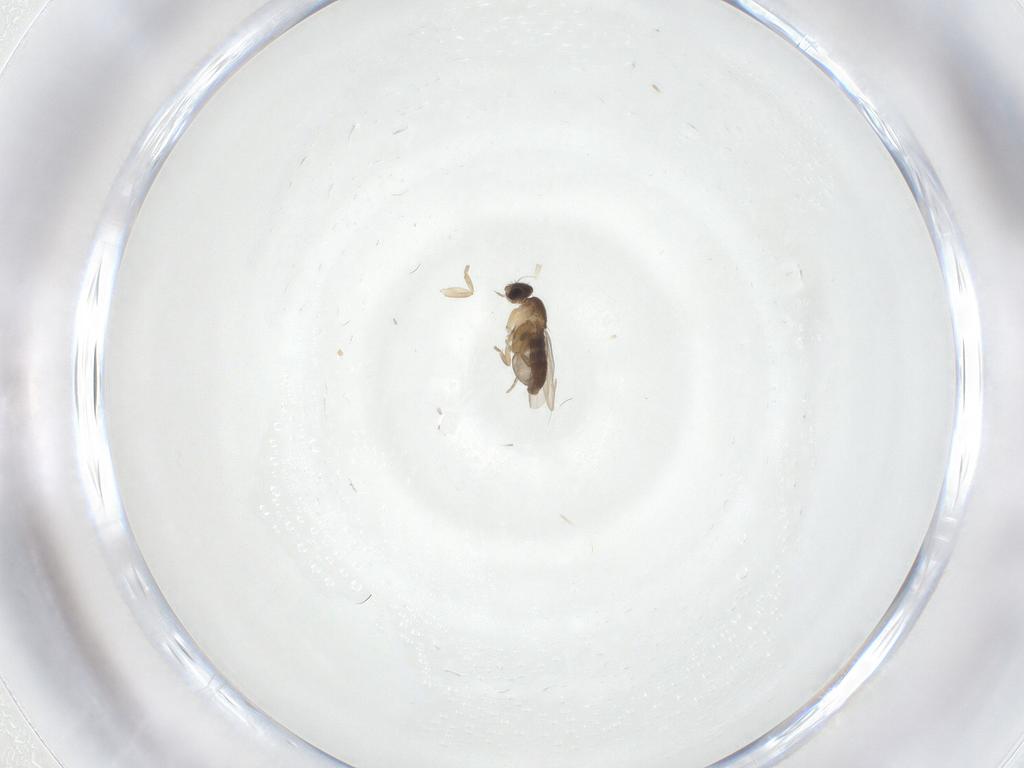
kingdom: Animalia
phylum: Arthropoda
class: Insecta
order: Diptera
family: Phoridae
